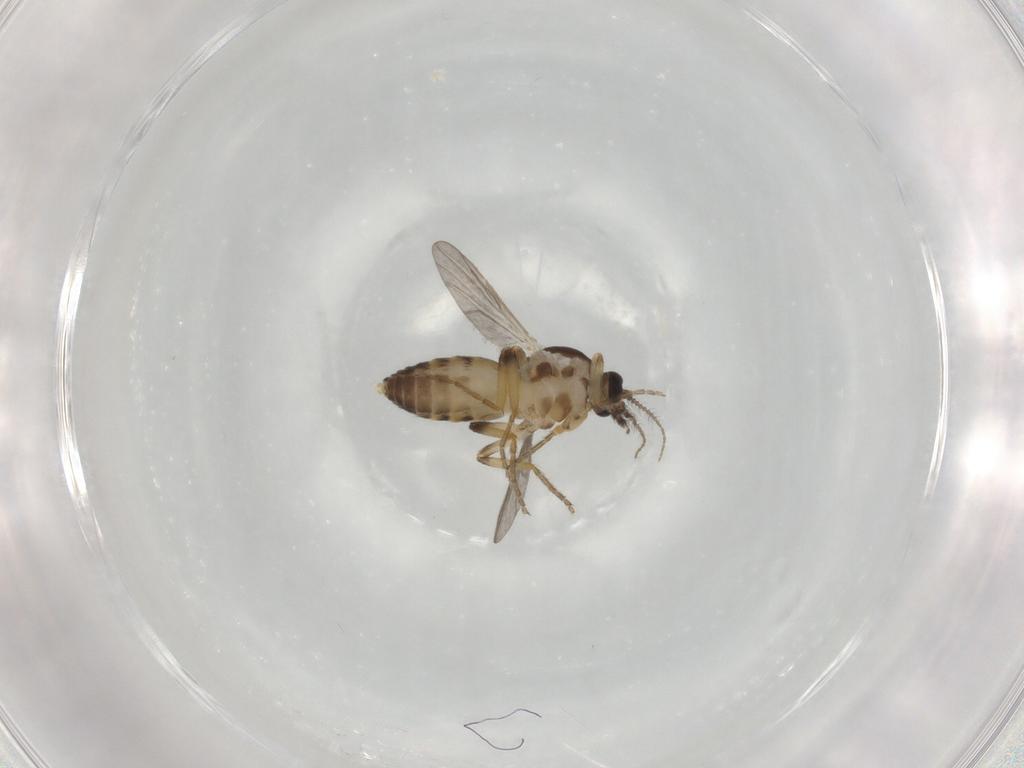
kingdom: Animalia
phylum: Arthropoda
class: Insecta
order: Diptera
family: Ceratopogonidae
